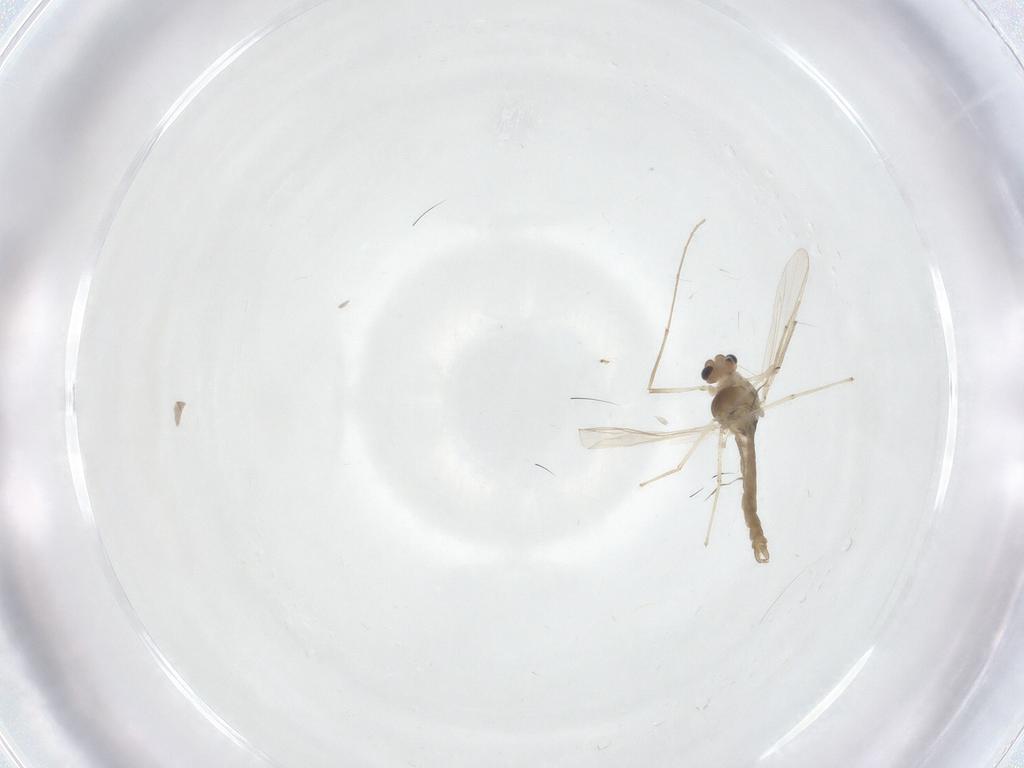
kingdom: Animalia
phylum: Arthropoda
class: Insecta
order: Diptera
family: Chironomidae
